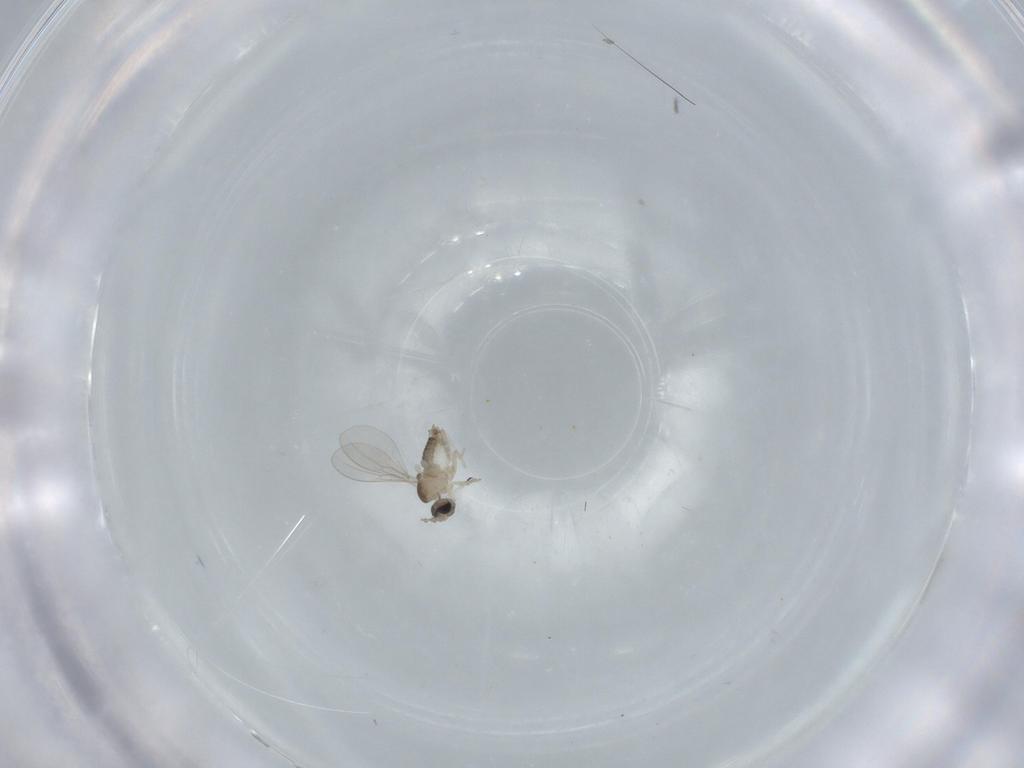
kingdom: Animalia
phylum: Arthropoda
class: Insecta
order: Diptera
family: Cecidomyiidae
